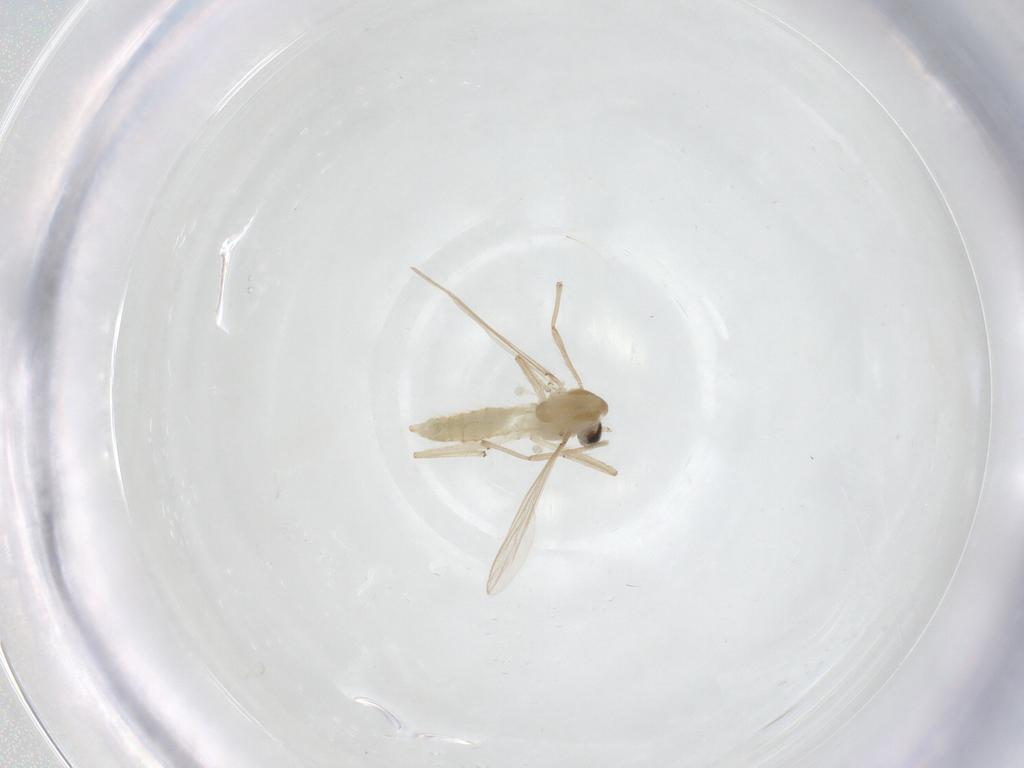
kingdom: Animalia
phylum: Arthropoda
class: Insecta
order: Diptera
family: Chironomidae
